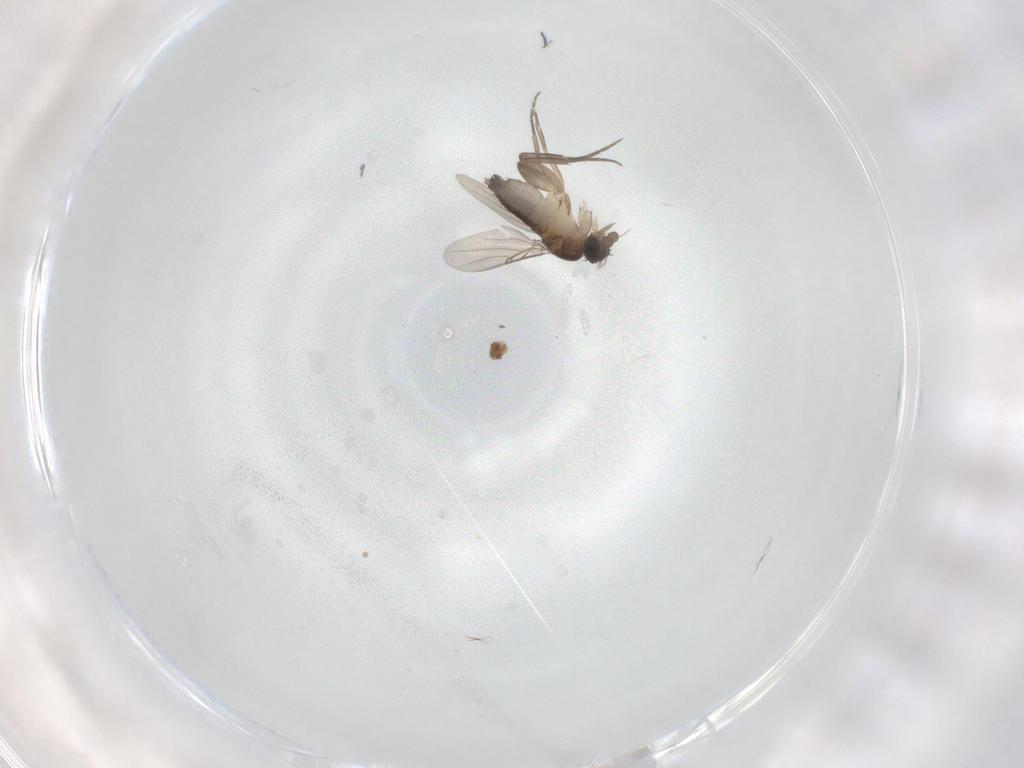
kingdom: Animalia
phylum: Arthropoda
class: Insecta
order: Diptera
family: Phoridae
